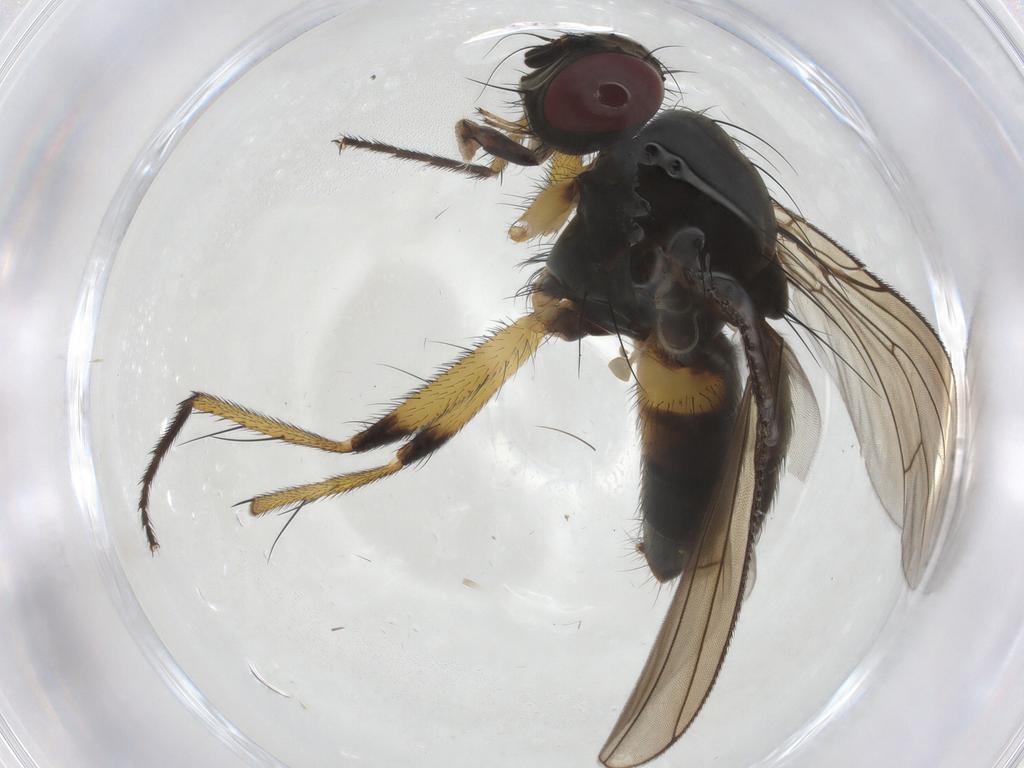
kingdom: Animalia
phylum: Arthropoda
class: Insecta
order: Diptera
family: Muscidae
